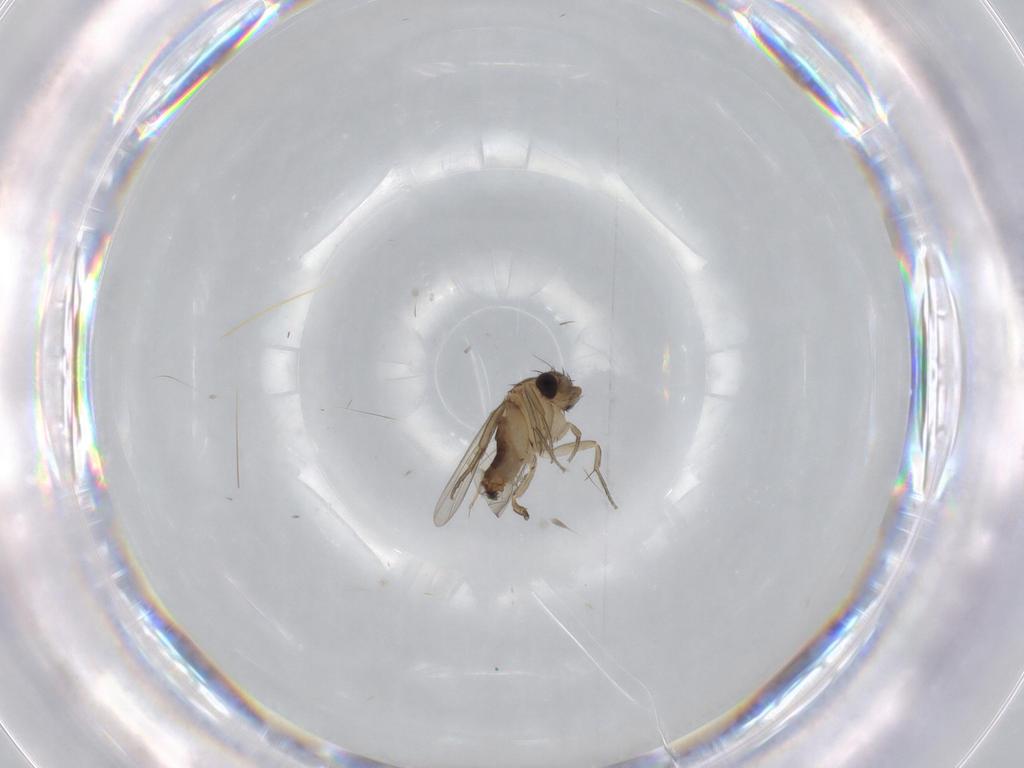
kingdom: Animalia
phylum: Arthropoda
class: Insecta
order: Diptera
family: Phoridae
